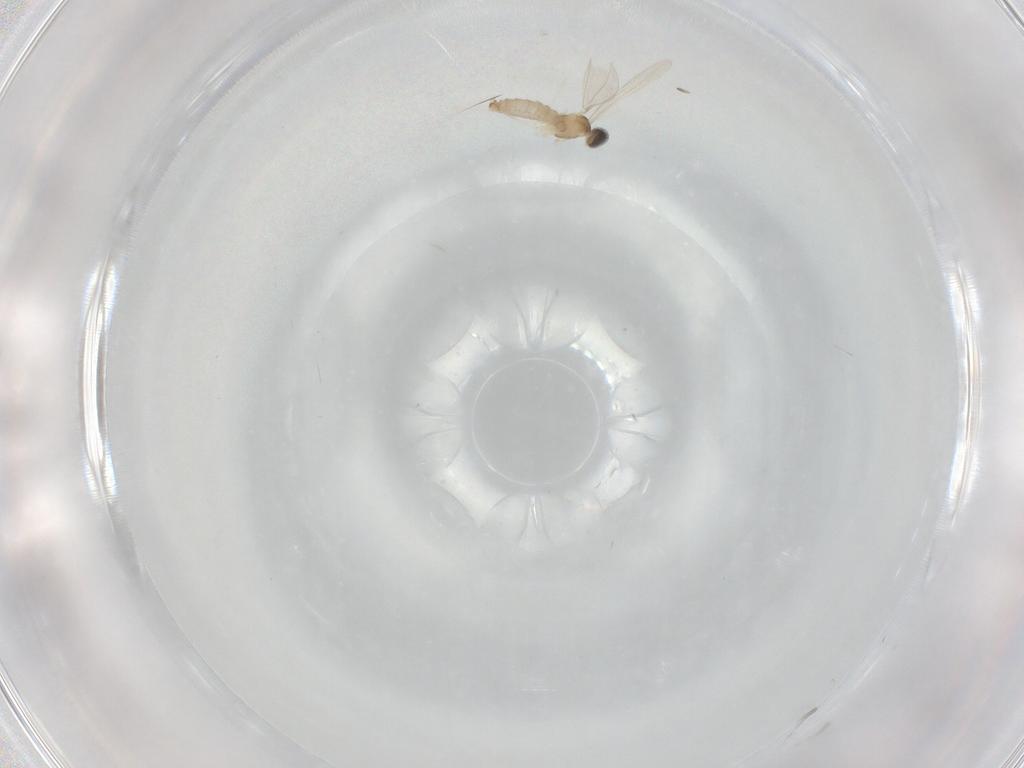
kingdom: Animalia
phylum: Arthropoda
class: Insecta
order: Diptera
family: Cecidomyiidae
